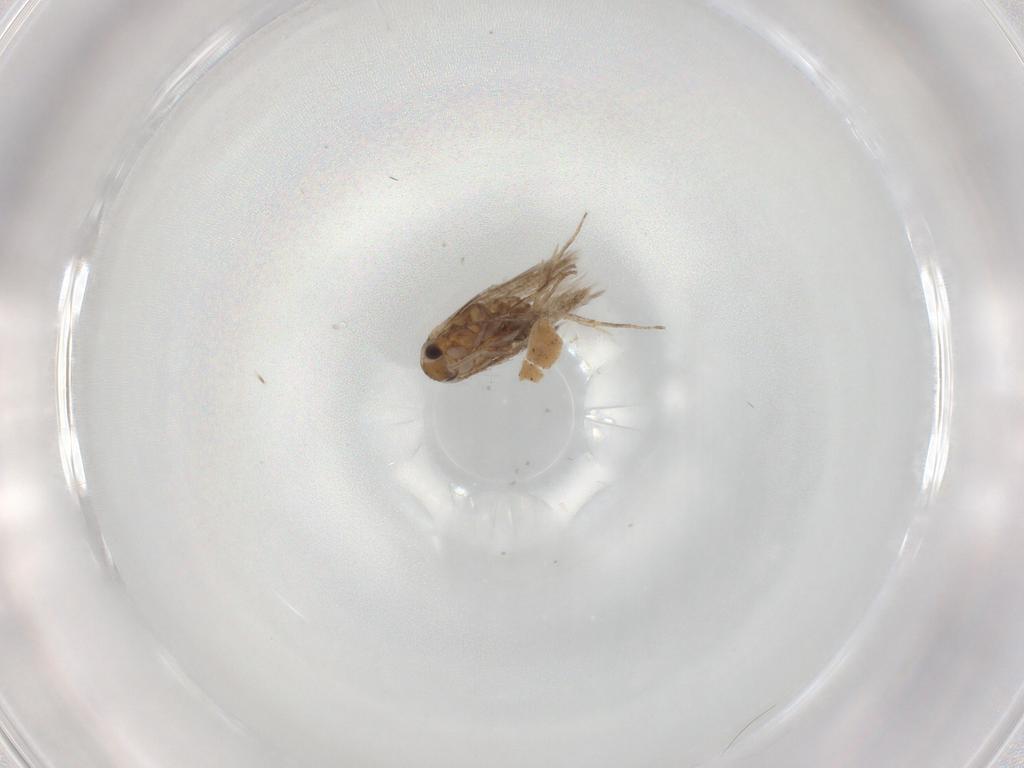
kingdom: Animalia
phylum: Arthropoda
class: Insecta
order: Lepidoptera
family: Nymphalidae
